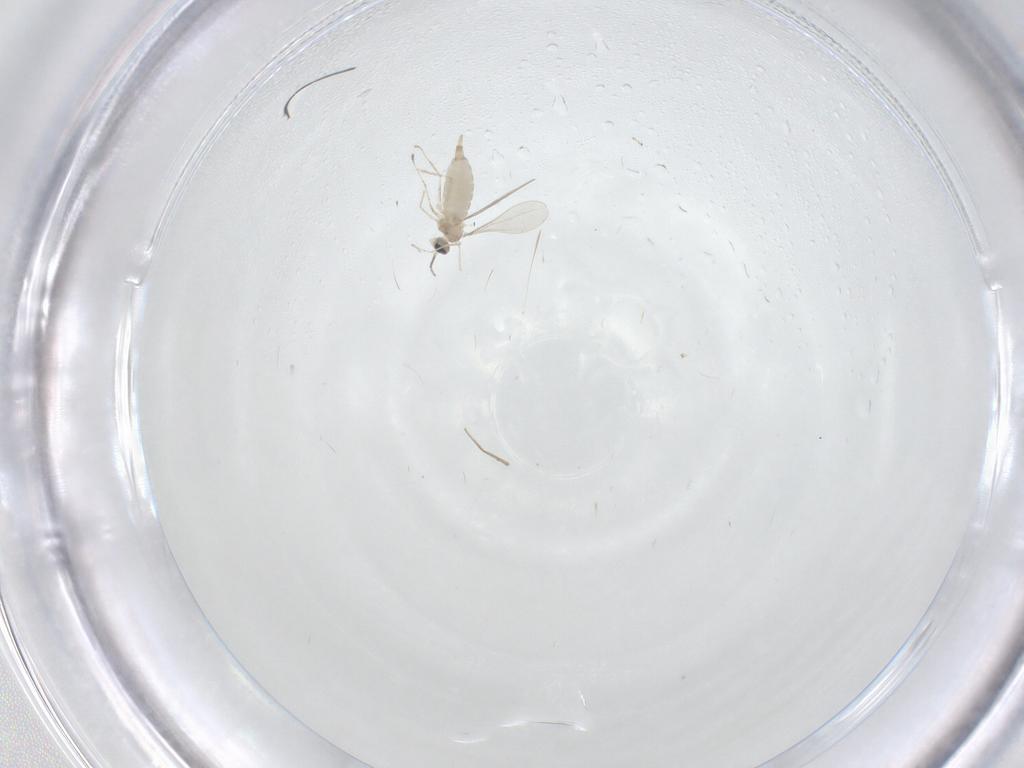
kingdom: Animalia
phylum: Arthropoda
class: Insecta
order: Diptera
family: Cecidomyiidae
